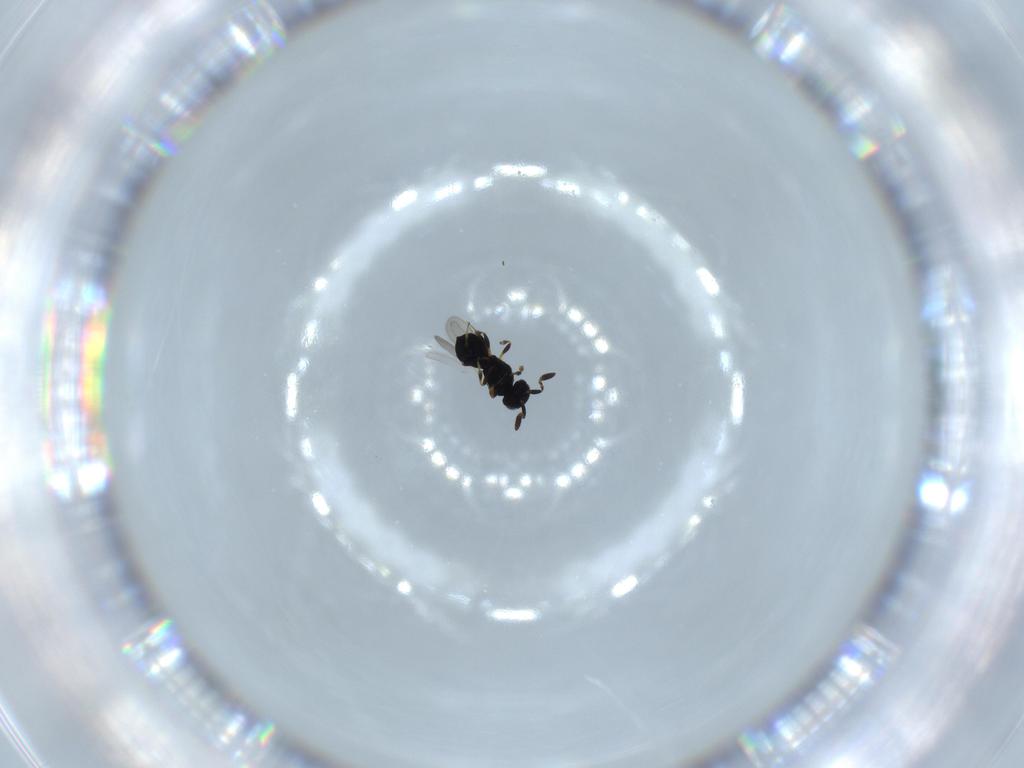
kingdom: Animalia
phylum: Arthropoda
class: Insecta
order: Hymenoptera
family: Scelionidae
